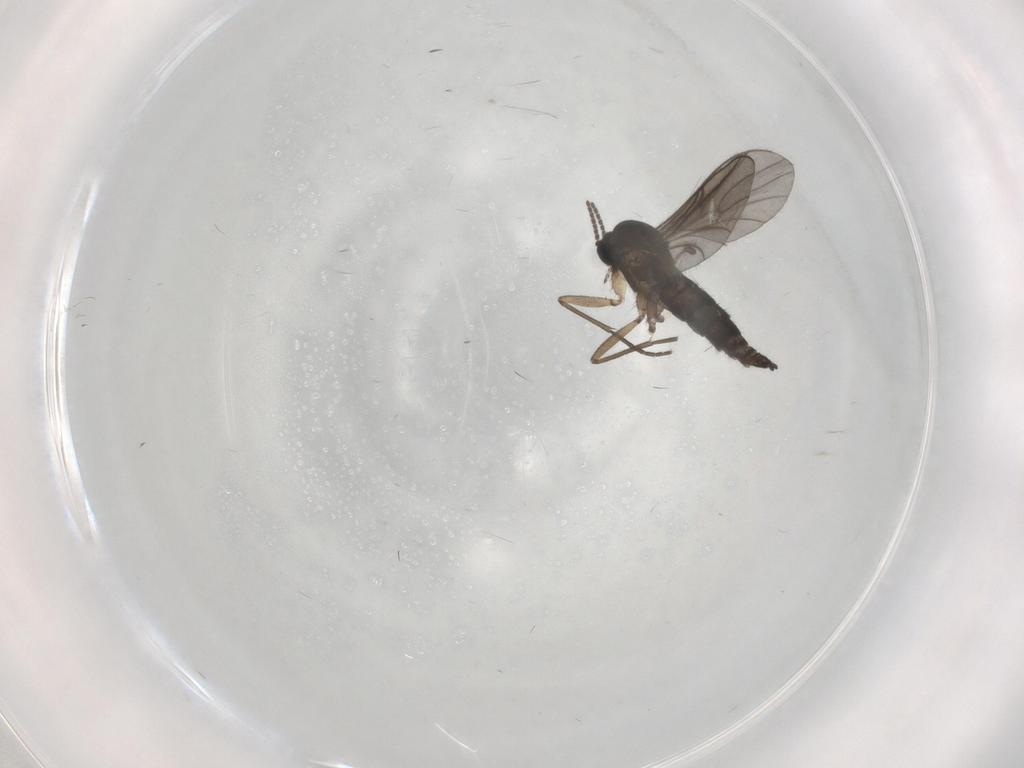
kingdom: Animalia
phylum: Arthropoda
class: Insecta
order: Diptera
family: Sciaridae
